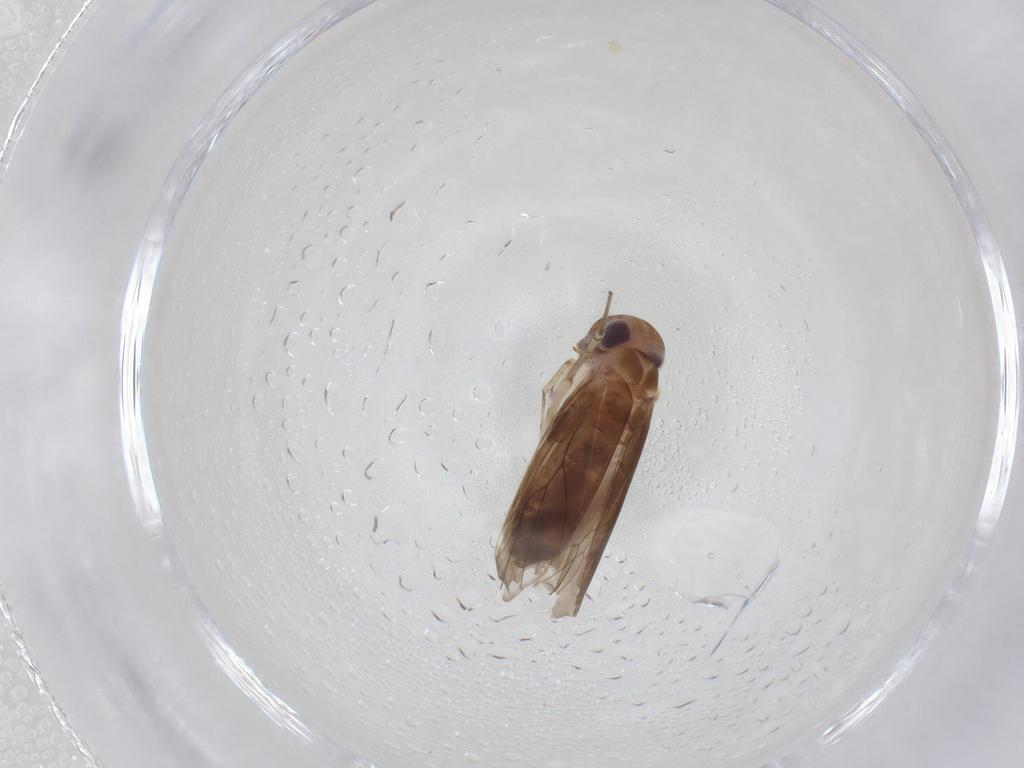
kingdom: Animalia
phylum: Arthropoda
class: Insecta
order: Psocodea
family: Amphientomidae
